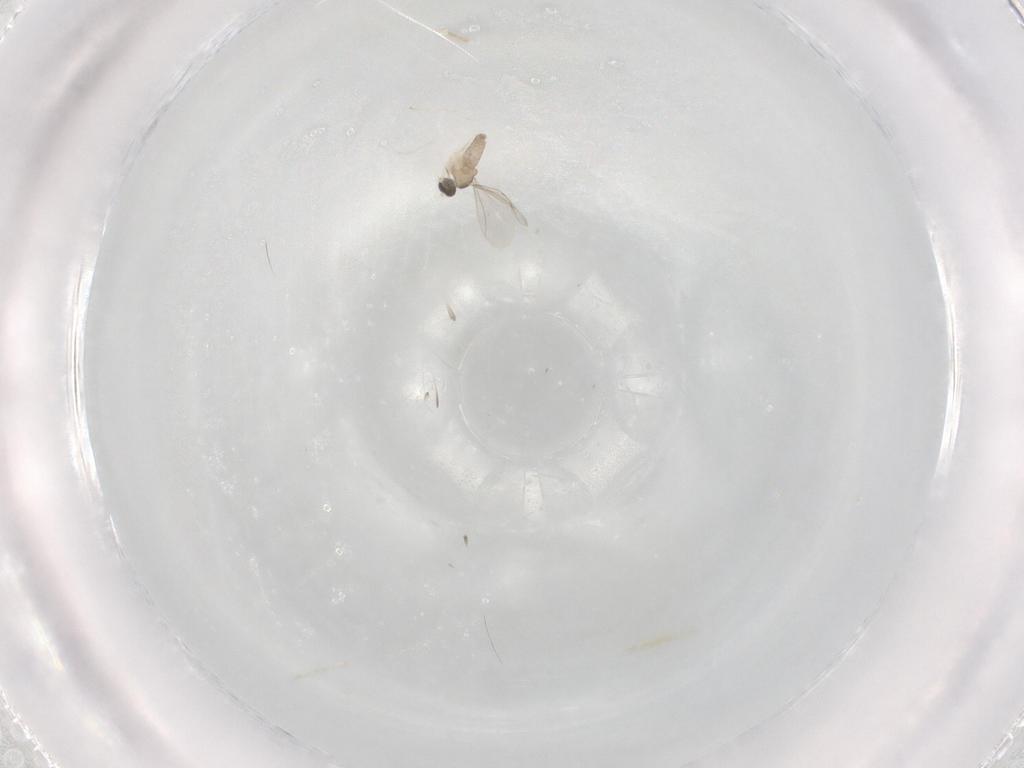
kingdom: Animalia
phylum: Arthropoda
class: Insecta
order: Diptera
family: Cecidomyiidae
